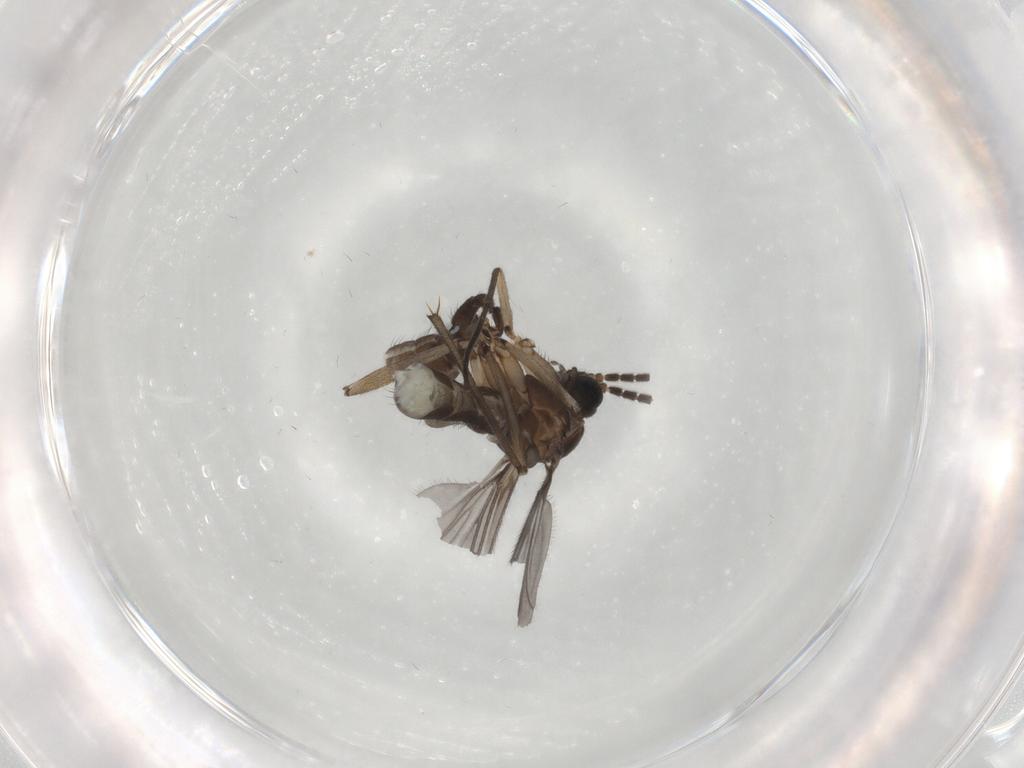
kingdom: Animalia
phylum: Arthropoda
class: Insecta
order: Diptera
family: Sciaridae
